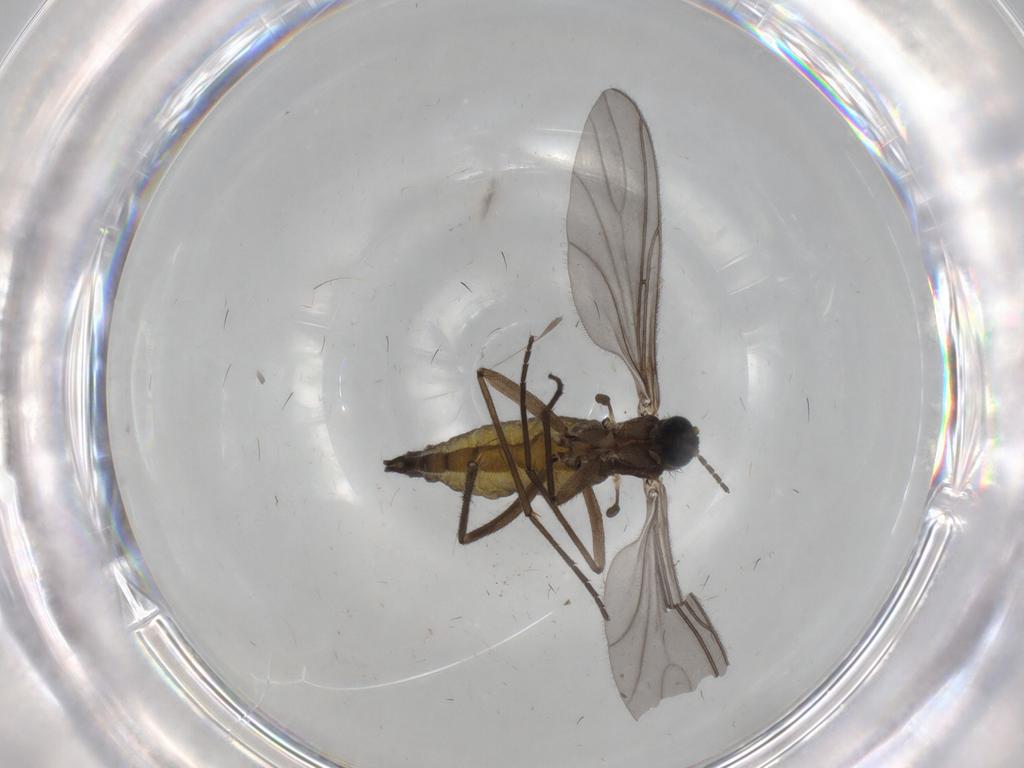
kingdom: Animalia
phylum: Arthropoda
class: Insecta
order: Diptera
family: Sciaridae
